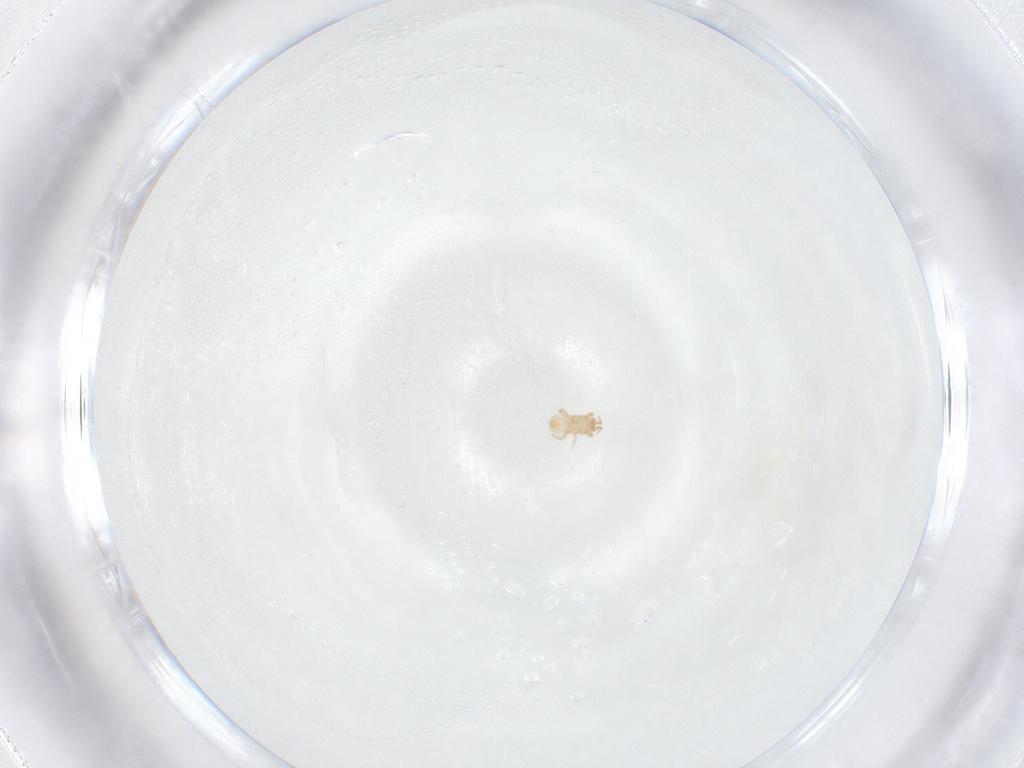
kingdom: Animalia
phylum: Arthropoda
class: Arachnida
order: Mesostigmata
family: Ascidae
